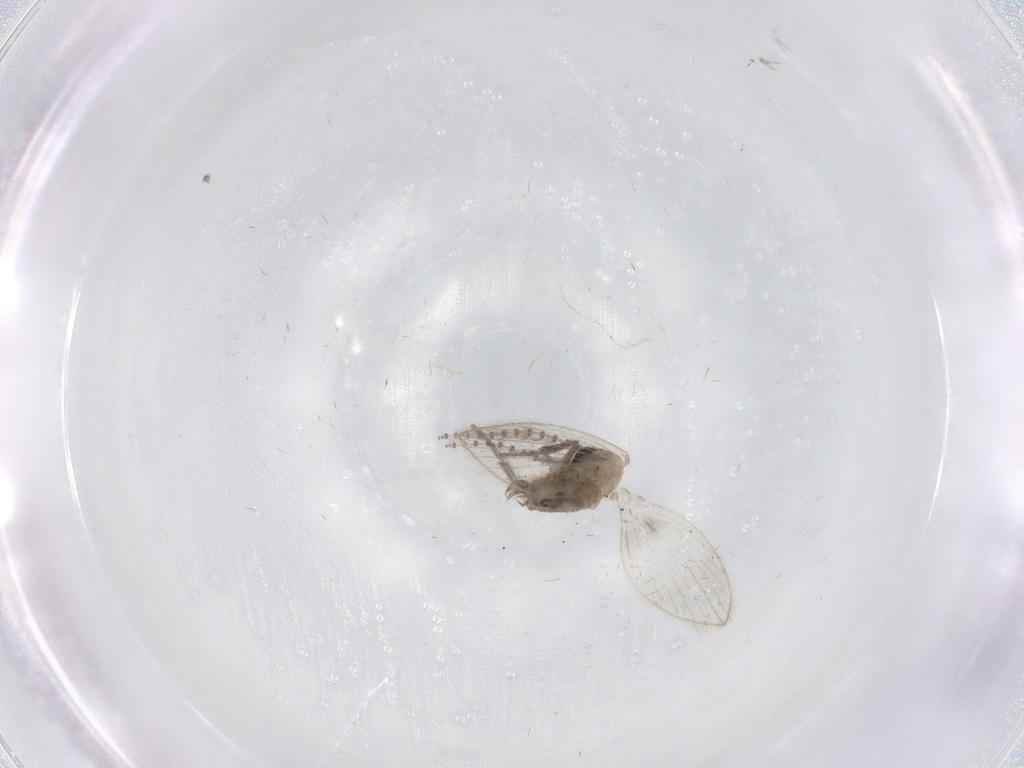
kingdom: Animalia
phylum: Arthropoda
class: Insecta
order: Diptera
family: Psychodidae
